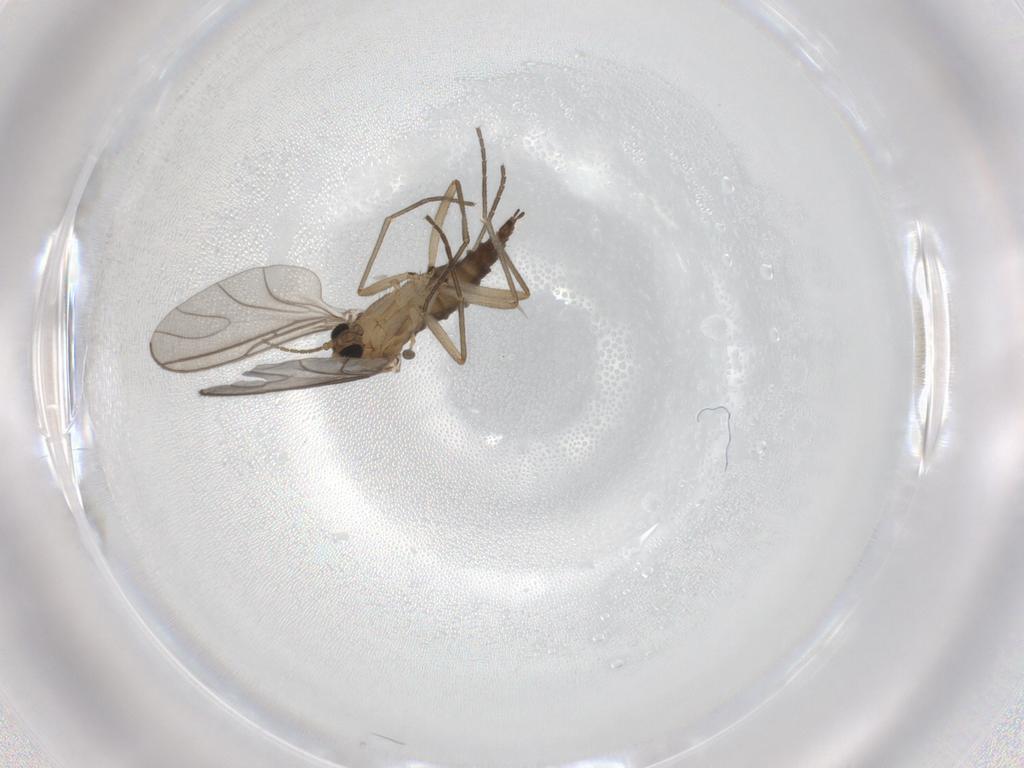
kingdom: Animalia
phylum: Arthropoda
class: Insecta
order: Diptera
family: Sciaridae
